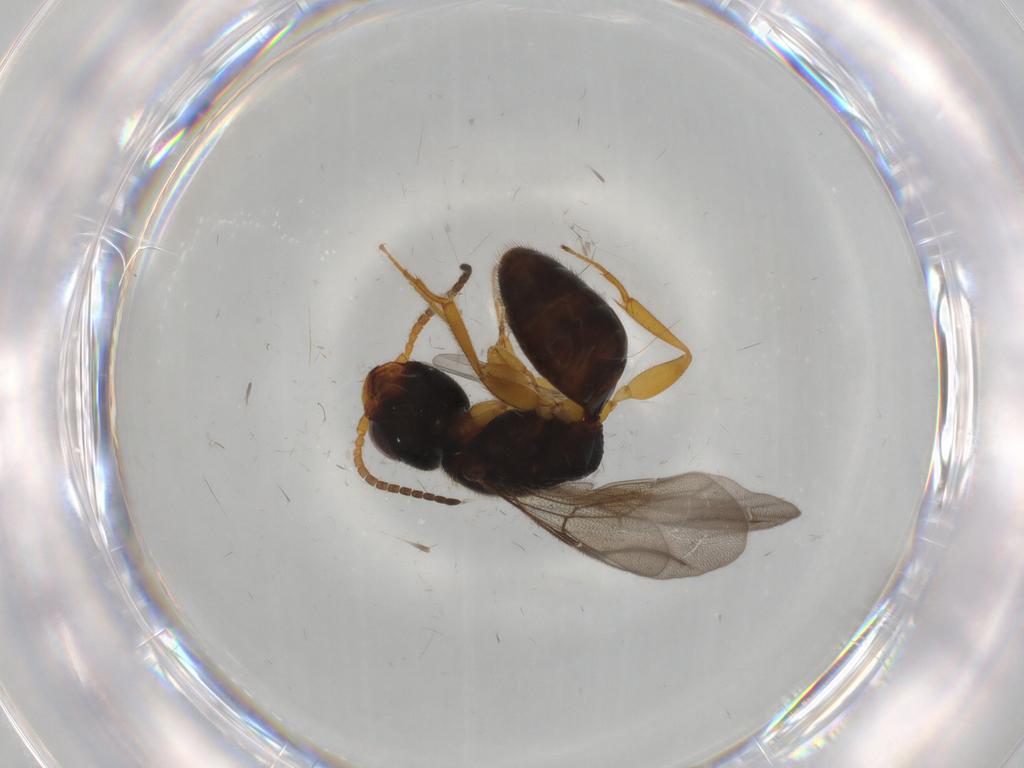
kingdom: Animalia
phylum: Arthropoda
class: Insecta
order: Hymenoptera
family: Bethylidae
